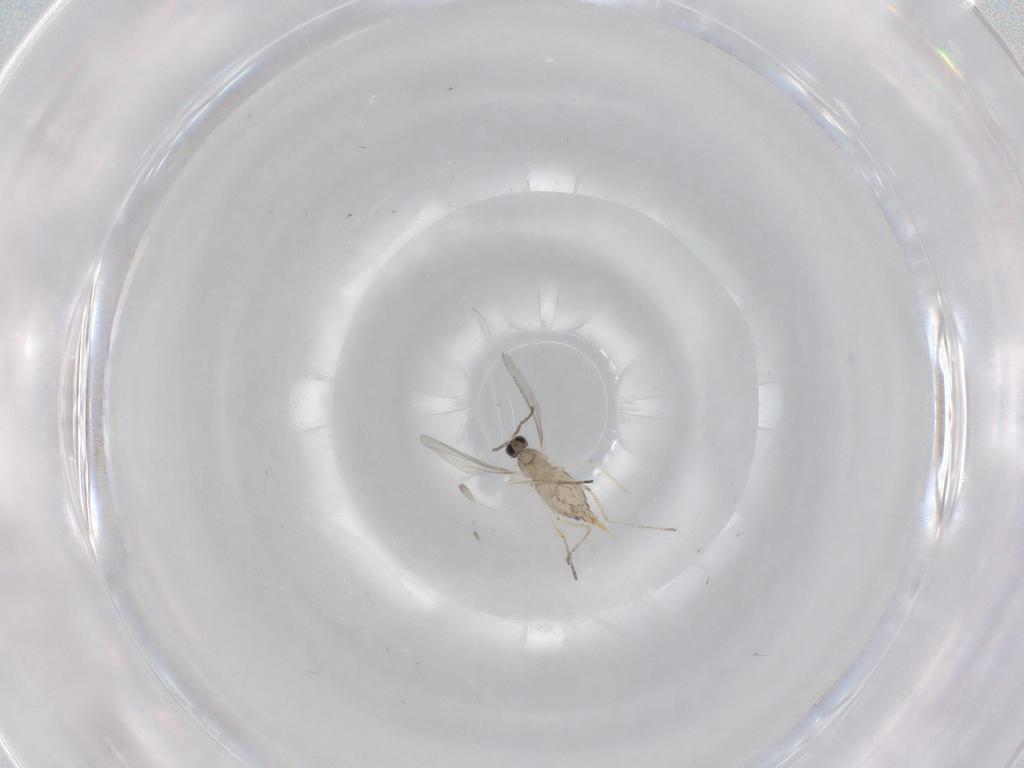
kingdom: Animalia
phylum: Arthropoda
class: Insecta
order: Diptera
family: Cecidomyiidae
